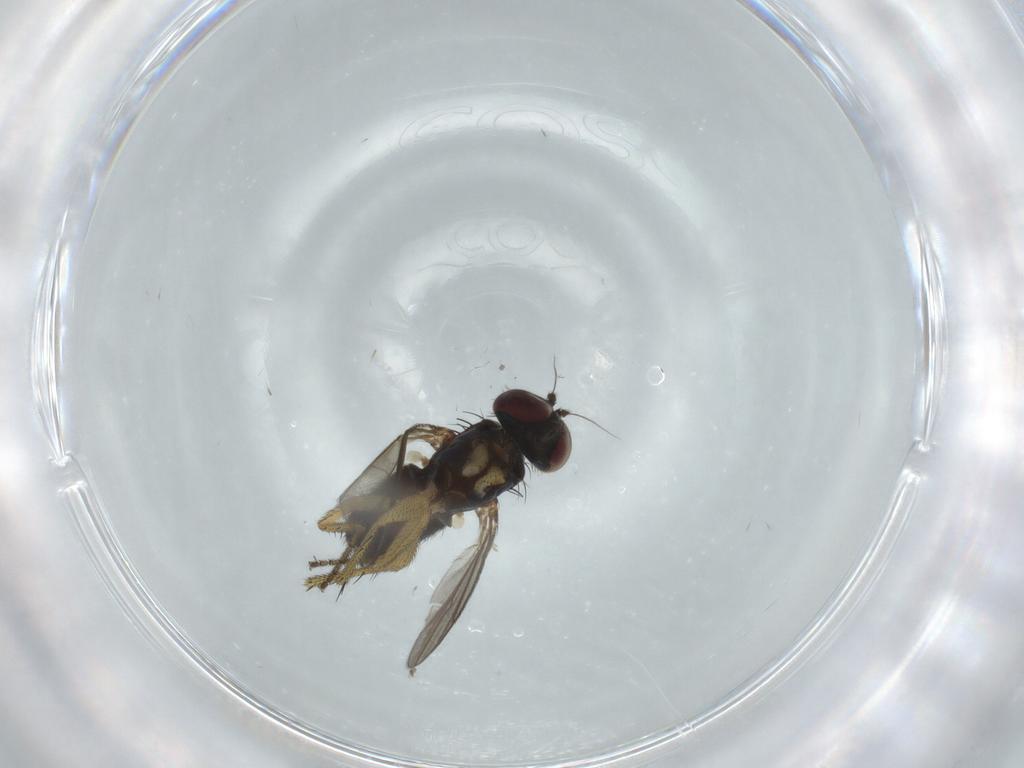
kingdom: Animalia
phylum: Arthropoda
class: Insecta
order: Diptera
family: Dolichopodidae
